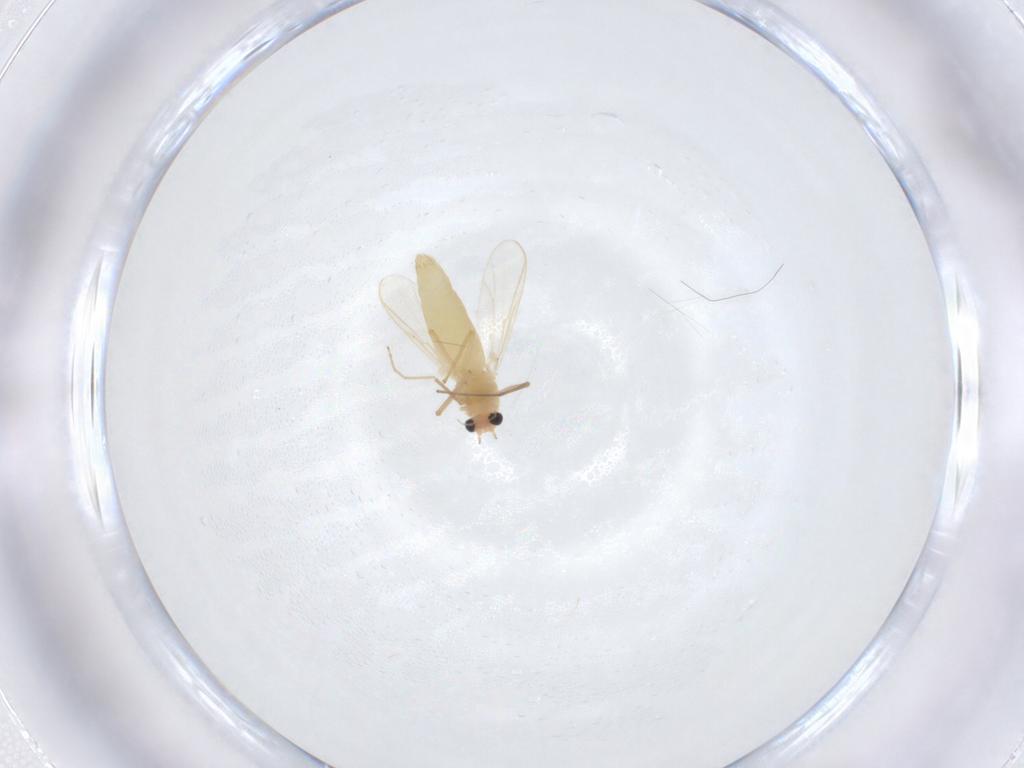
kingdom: Animalia
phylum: Arthropoda
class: Insecta
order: Diptera
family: Chironomidae
